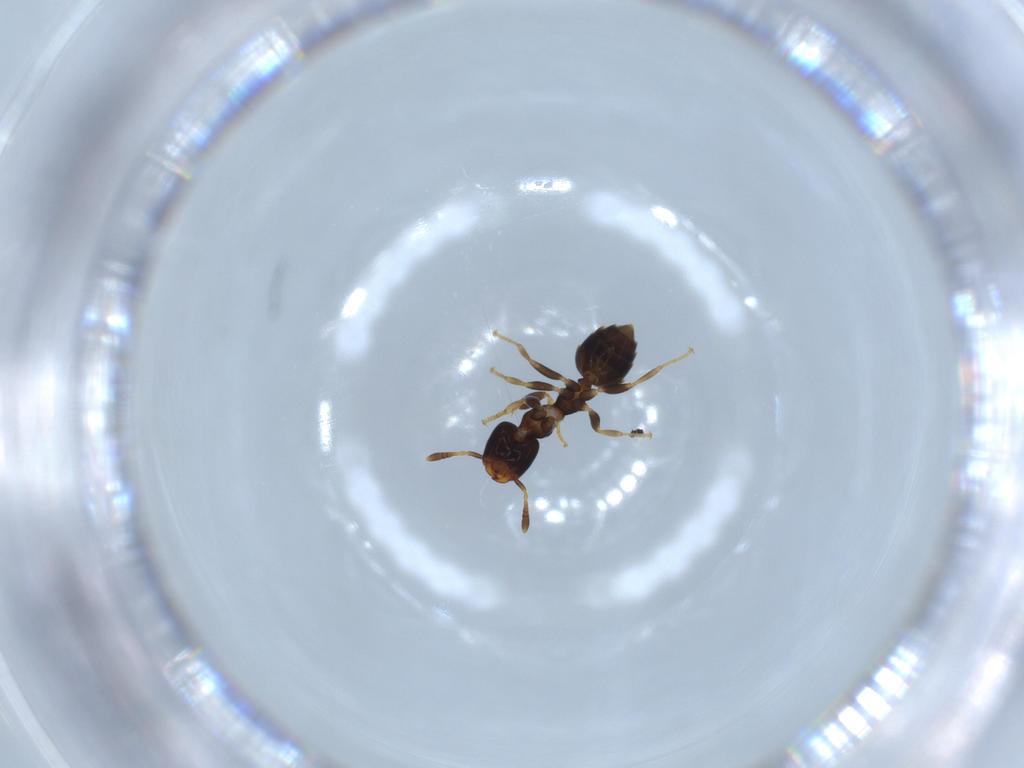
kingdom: Animalia
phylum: Arthropoda
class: Insecta
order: Hymenoptera
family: Formicidae
